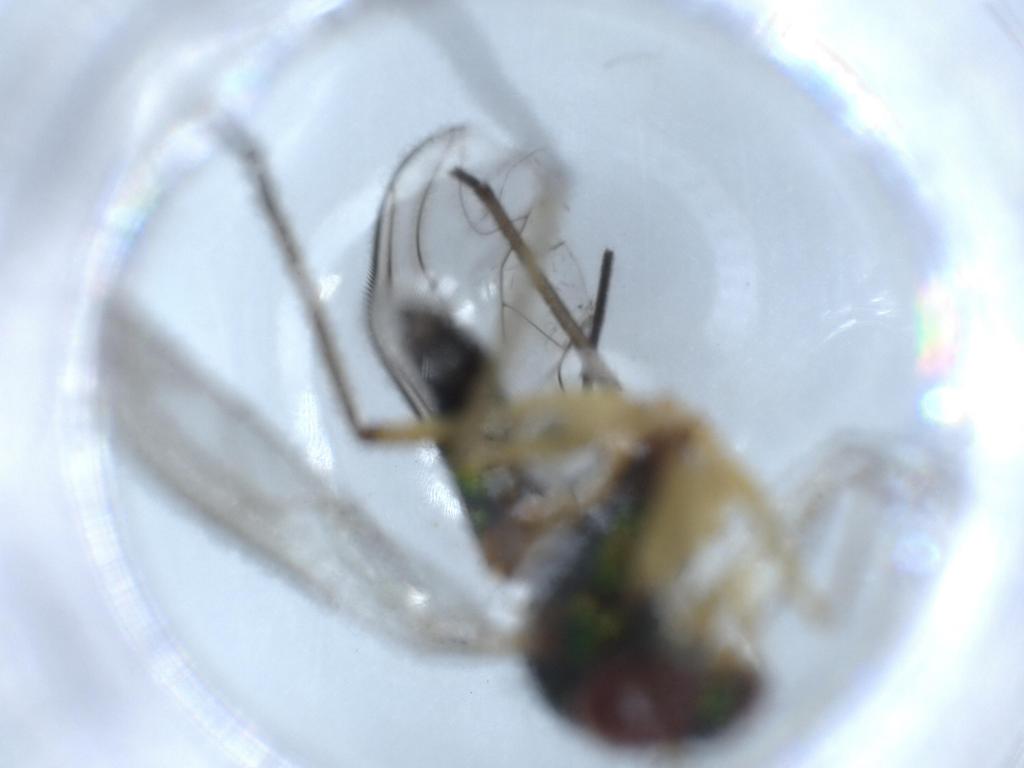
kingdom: Animalia
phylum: Arthropoda
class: Insecta
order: Diptera
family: Dolichopodidae
